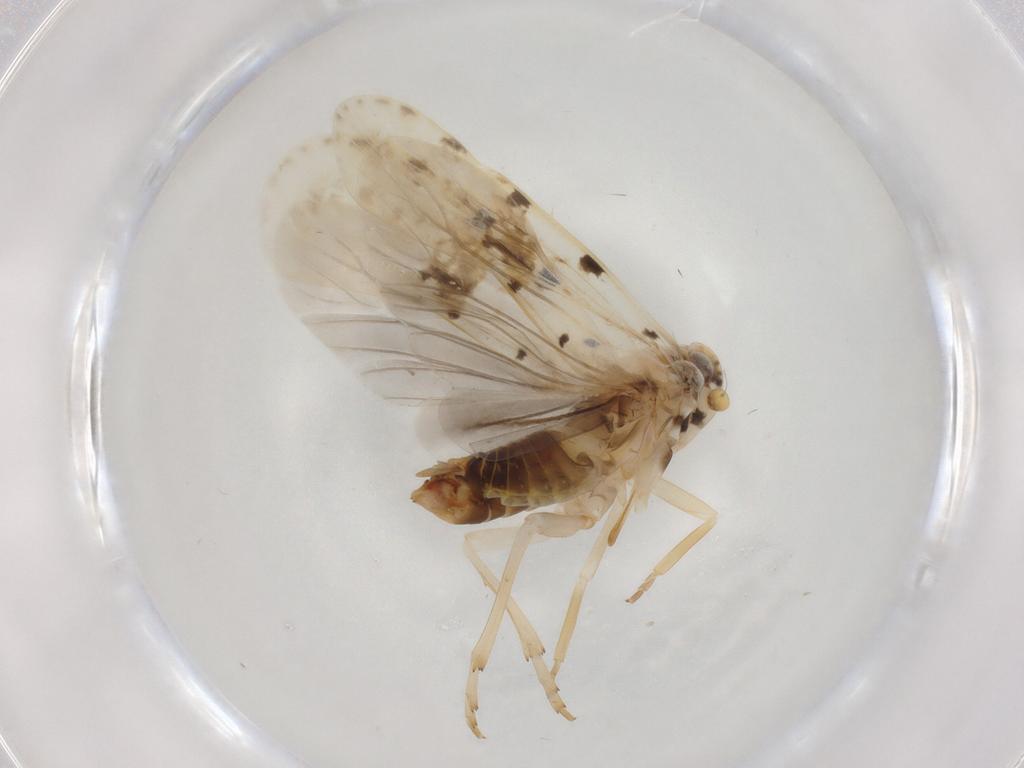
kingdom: Animalia
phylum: Arthropoda
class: Insecta
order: Hemiptera
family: Achilidae
